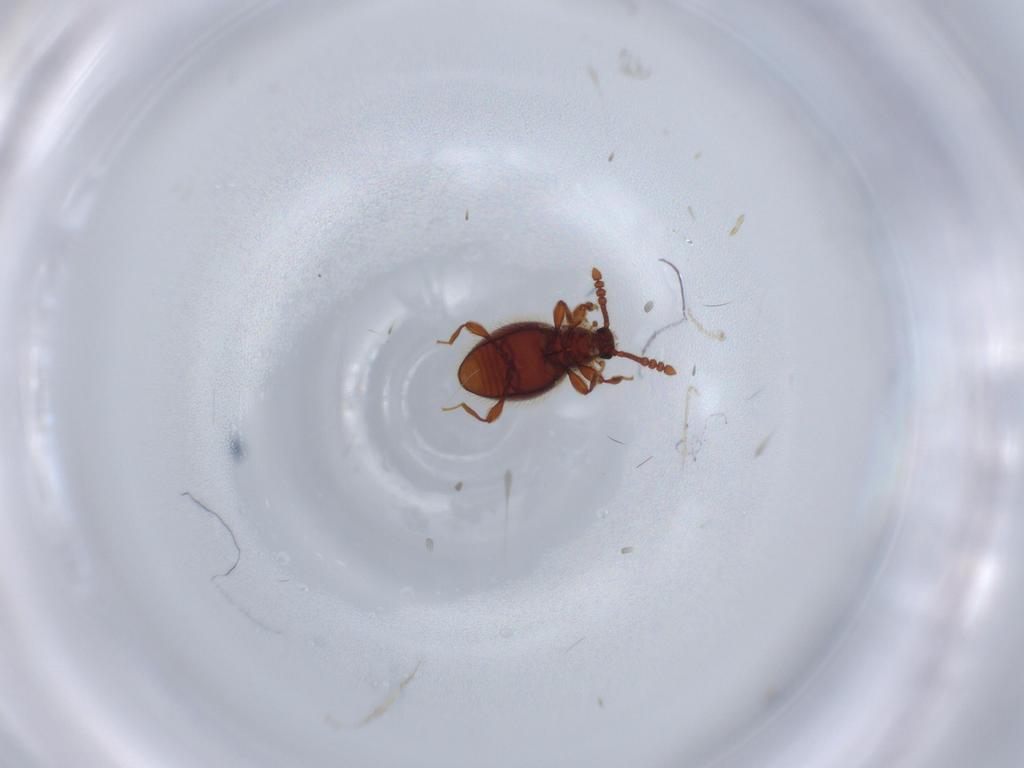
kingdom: Animalia
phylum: Arthropoda
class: Insecta
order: Coleoptera
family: Staphylinidae
